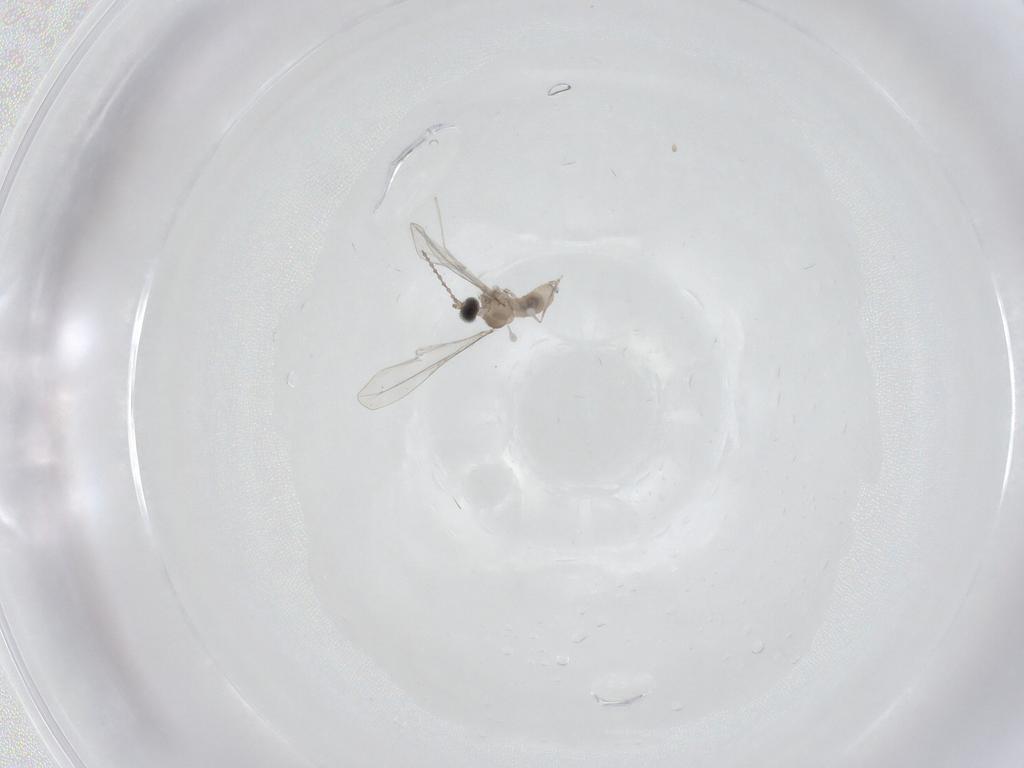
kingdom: Animalia
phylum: Arthropoda
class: Insecta
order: Diptera
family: Cecidomyiidae
